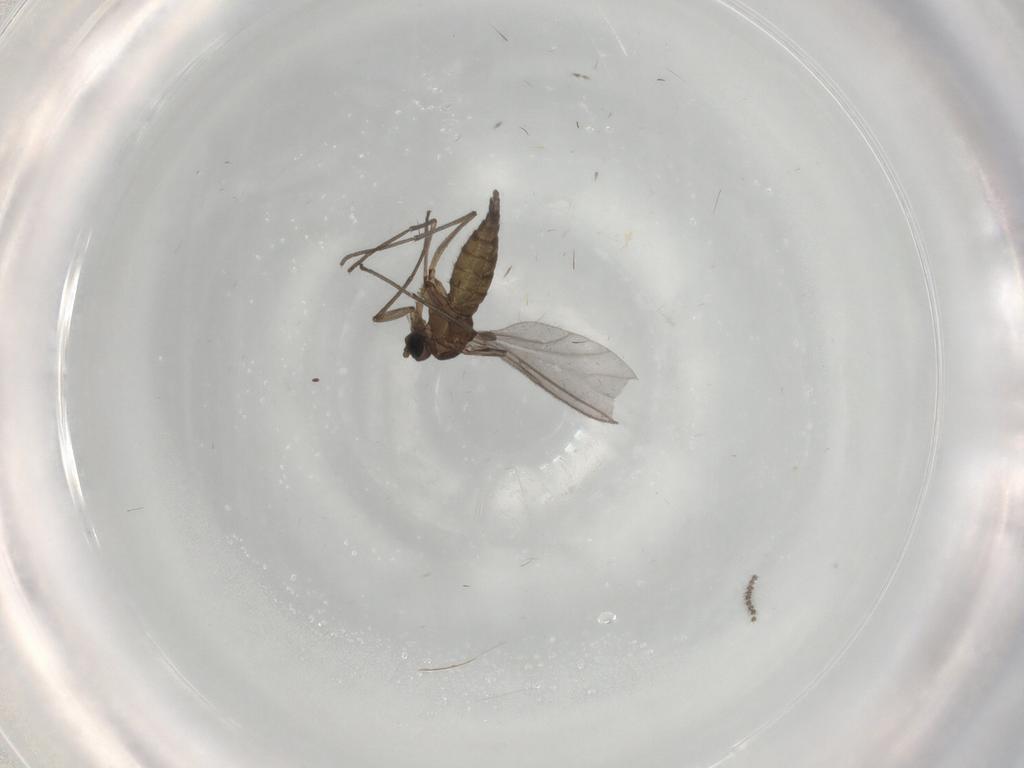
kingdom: Animalia
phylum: Arthropoda
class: Insecta
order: Diptera
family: Sciaridae
